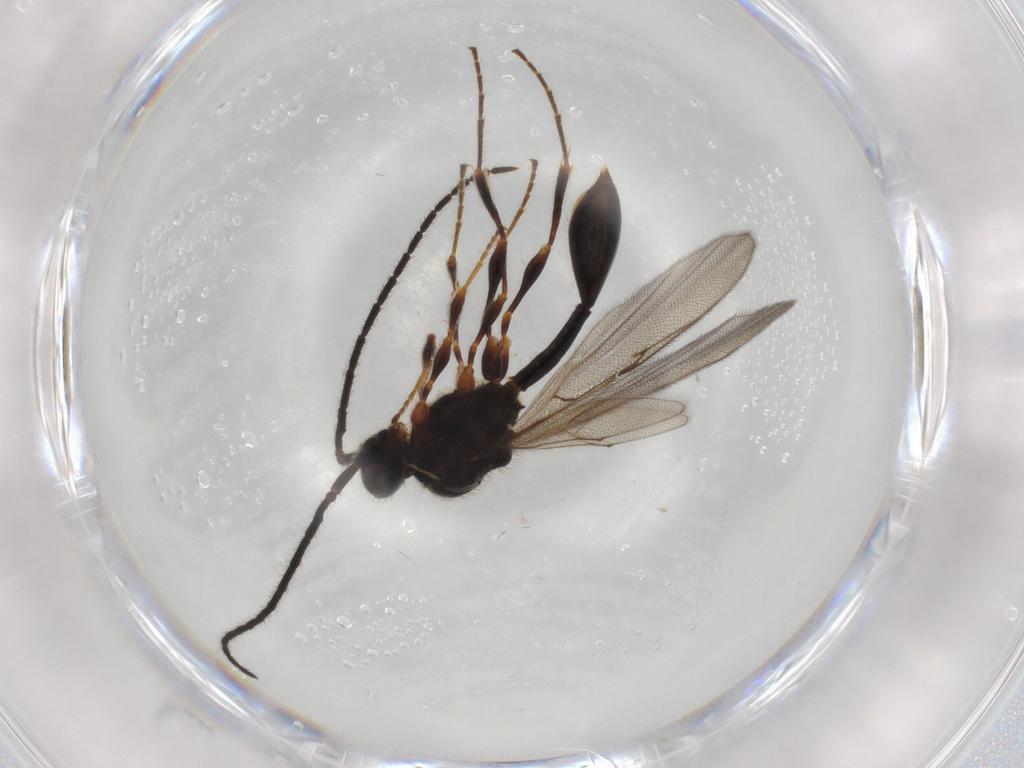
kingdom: Animalia
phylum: Arthropoda
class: Insecta
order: Hymenoptera
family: Diapriidae
